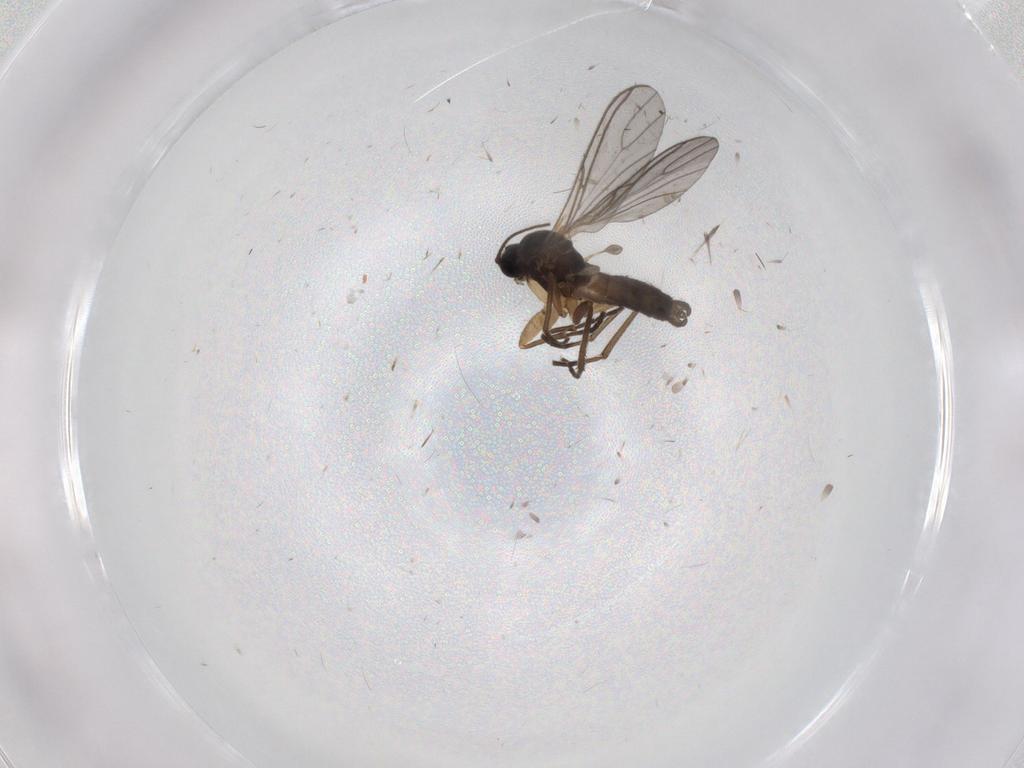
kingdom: Animalia
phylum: Arthropoda
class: Insecta
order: Diptera
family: Sciaridae
